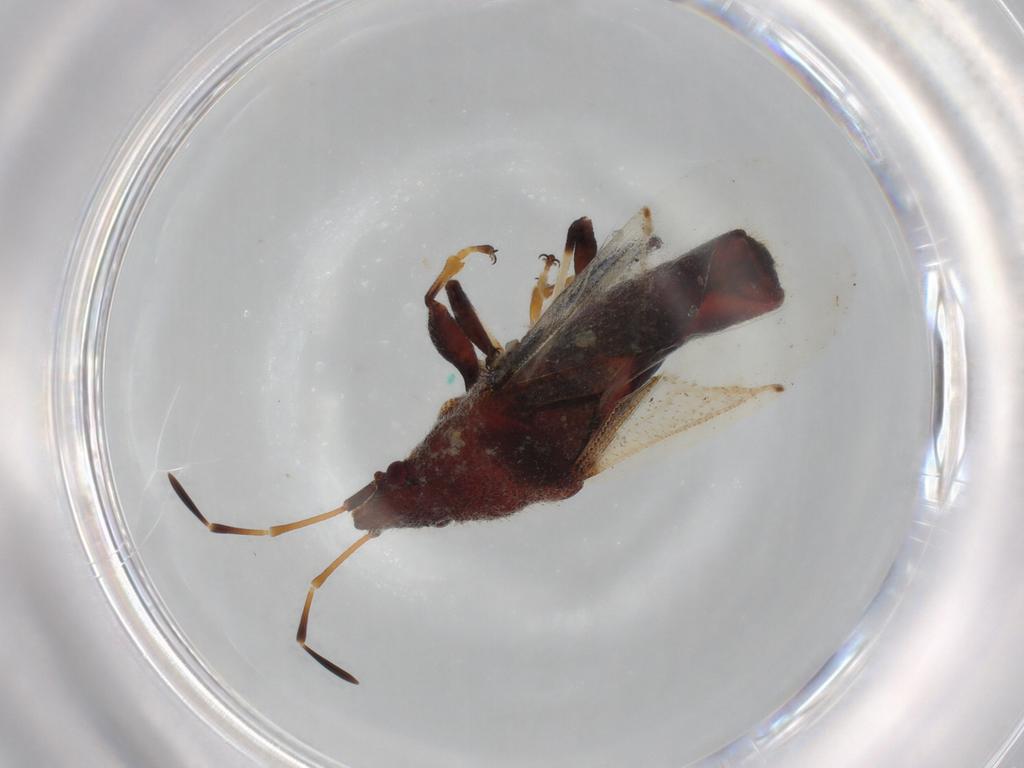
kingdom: Animalia
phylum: Arthropoda
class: Insecta
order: Hemiptera
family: Oxycarenidae
